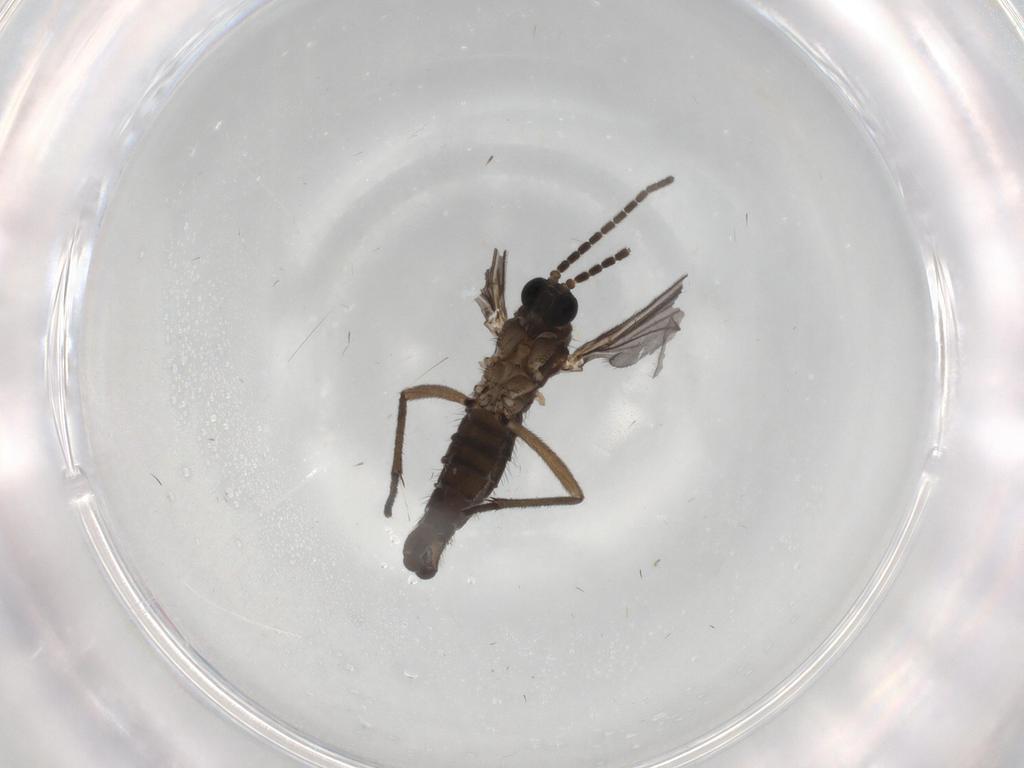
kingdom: Animalia
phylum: Arthropoda
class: Insecta
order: Diptera
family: Sciaridae
